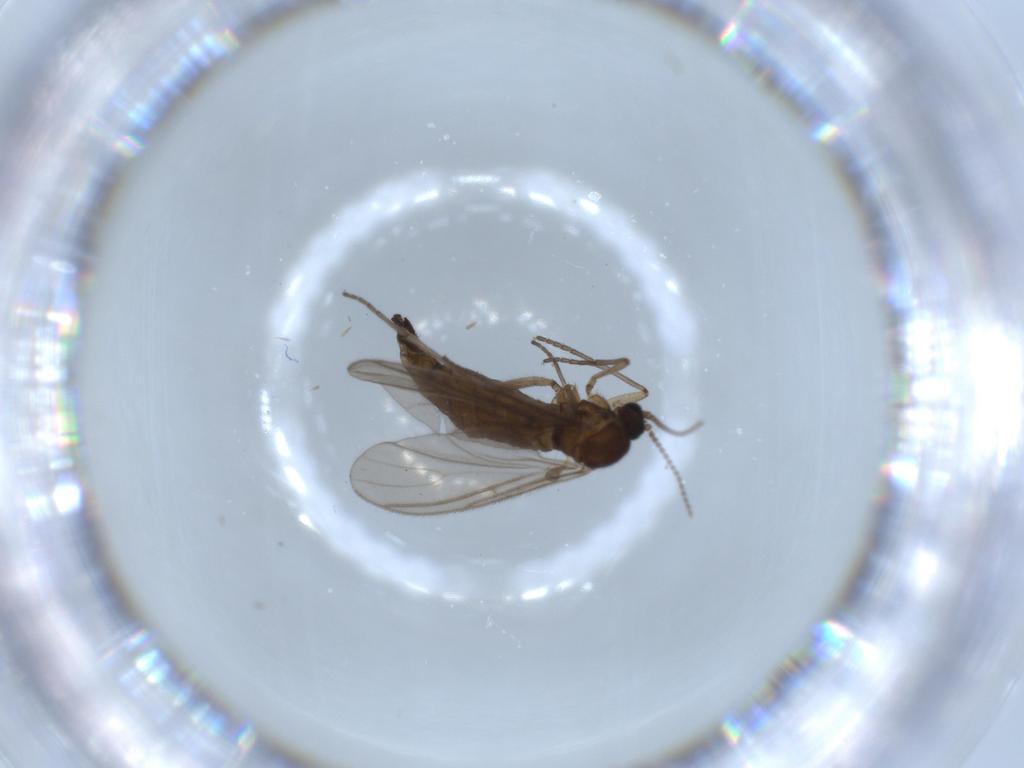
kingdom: Animalia
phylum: Arthropoda
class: Insecta
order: Diptera
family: Sciaridae
